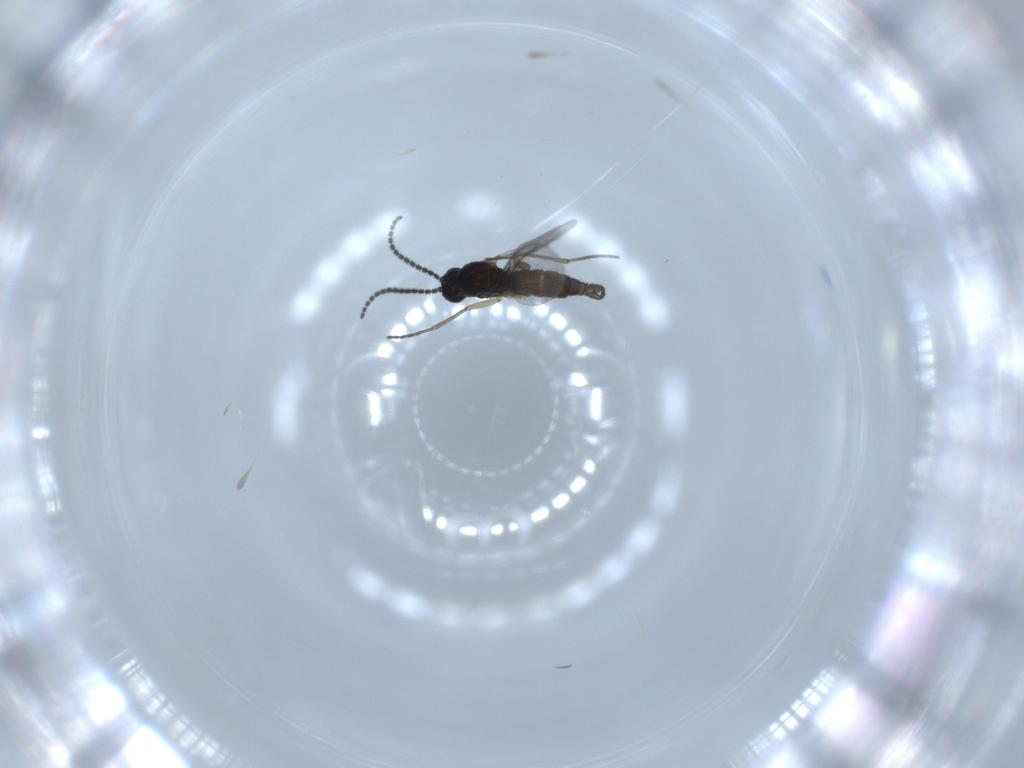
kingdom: Animalia
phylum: Arthropoda
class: Insecta
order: Diptera
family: Sciaridae
